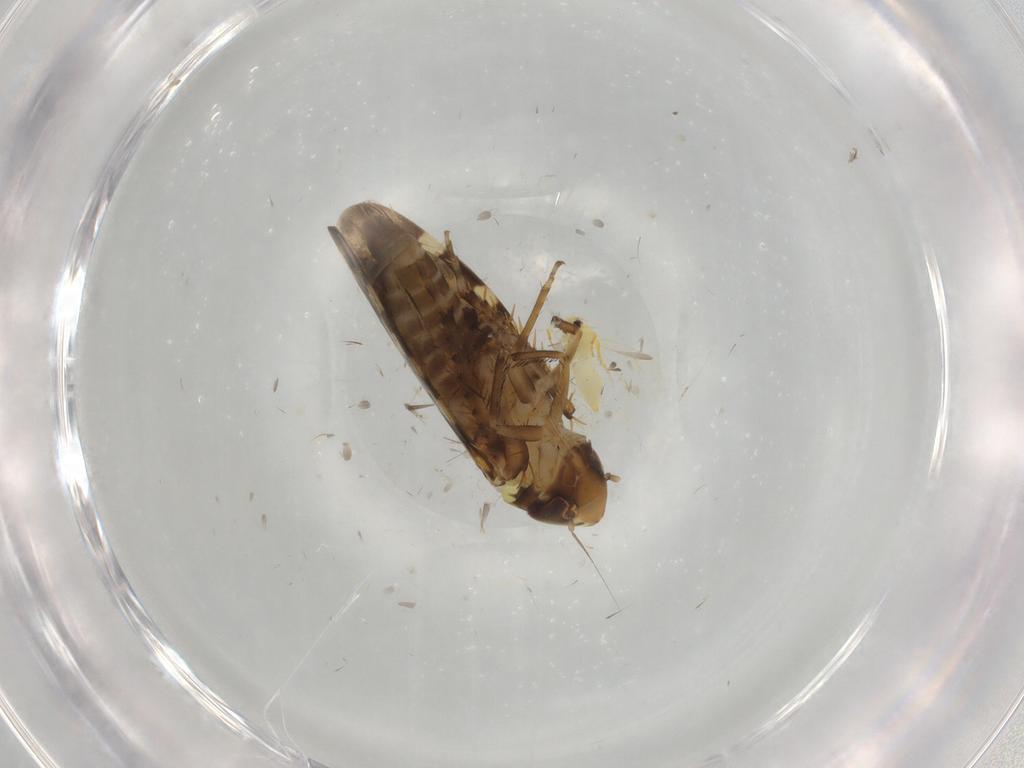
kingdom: Animalia
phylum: Arthropoda
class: Insecta
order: Hemiptera
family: Aleyrodidae
